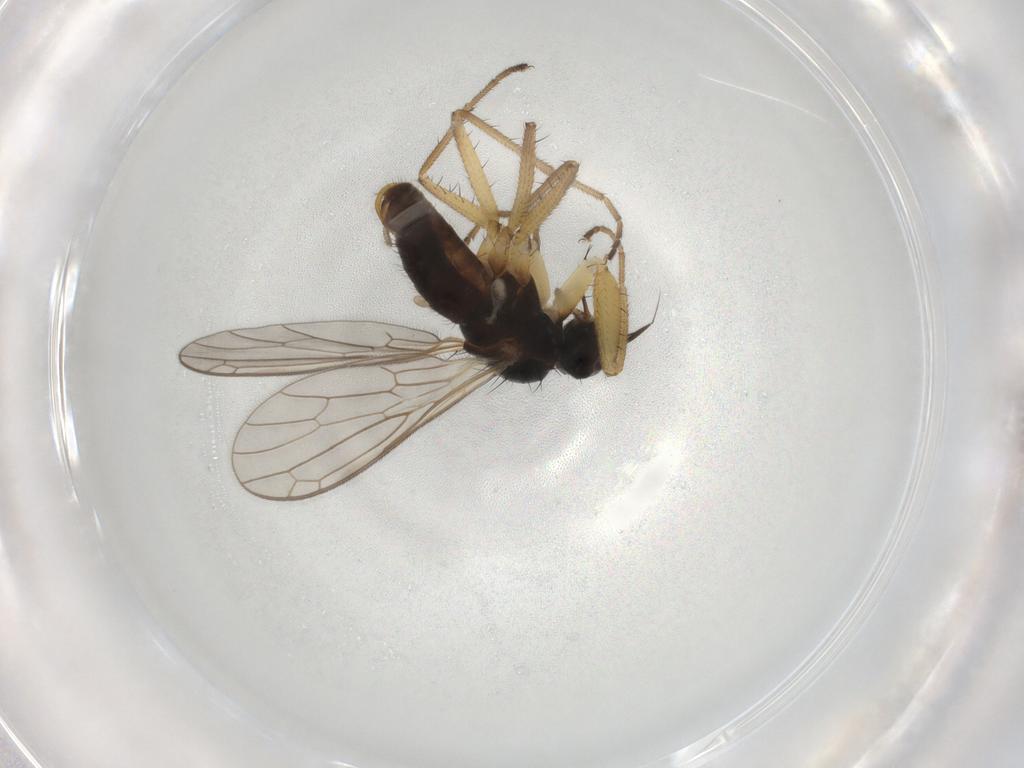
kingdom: Animalia
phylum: Arthropoda
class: Insecta
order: Diptera
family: Empididae
